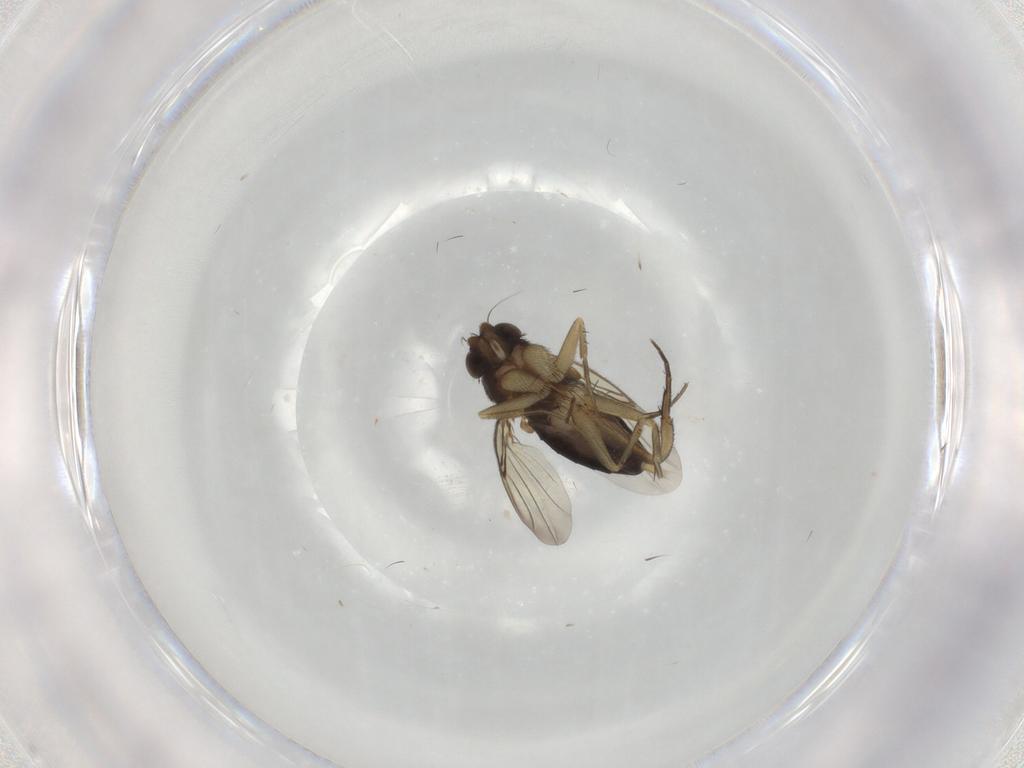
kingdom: Animalia
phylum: Arthropoda
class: Insecta
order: Diptera
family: Phoridae
